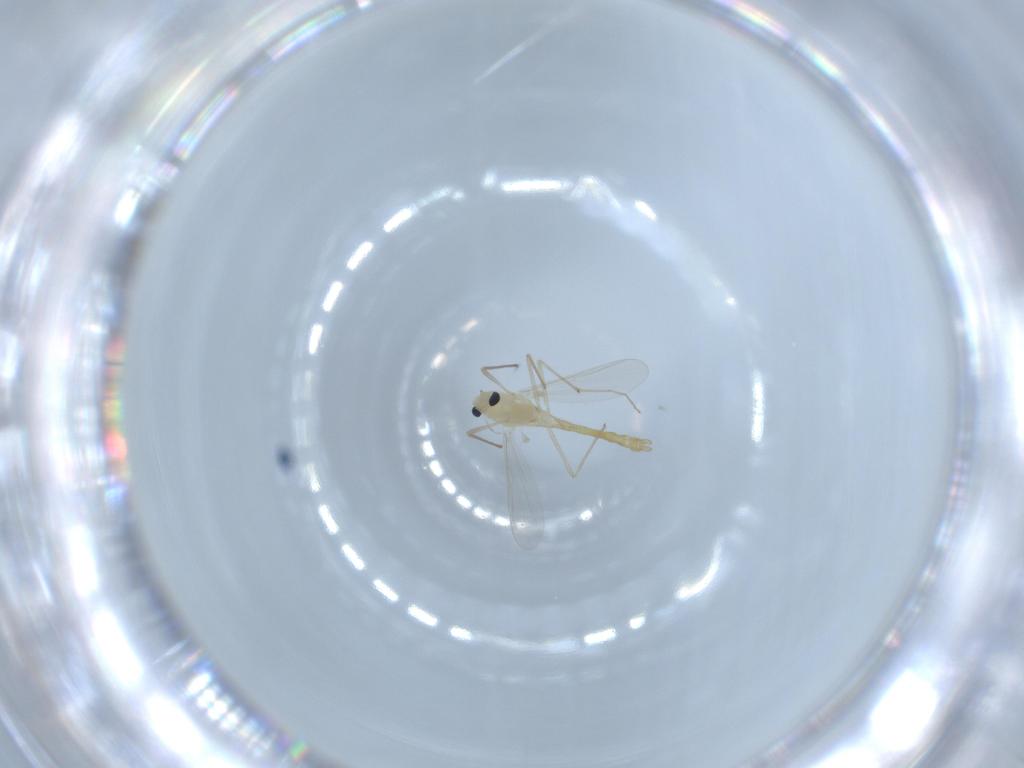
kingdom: Animalia
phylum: Arthropoda
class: Insecta
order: Diptera
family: Chironomidae
